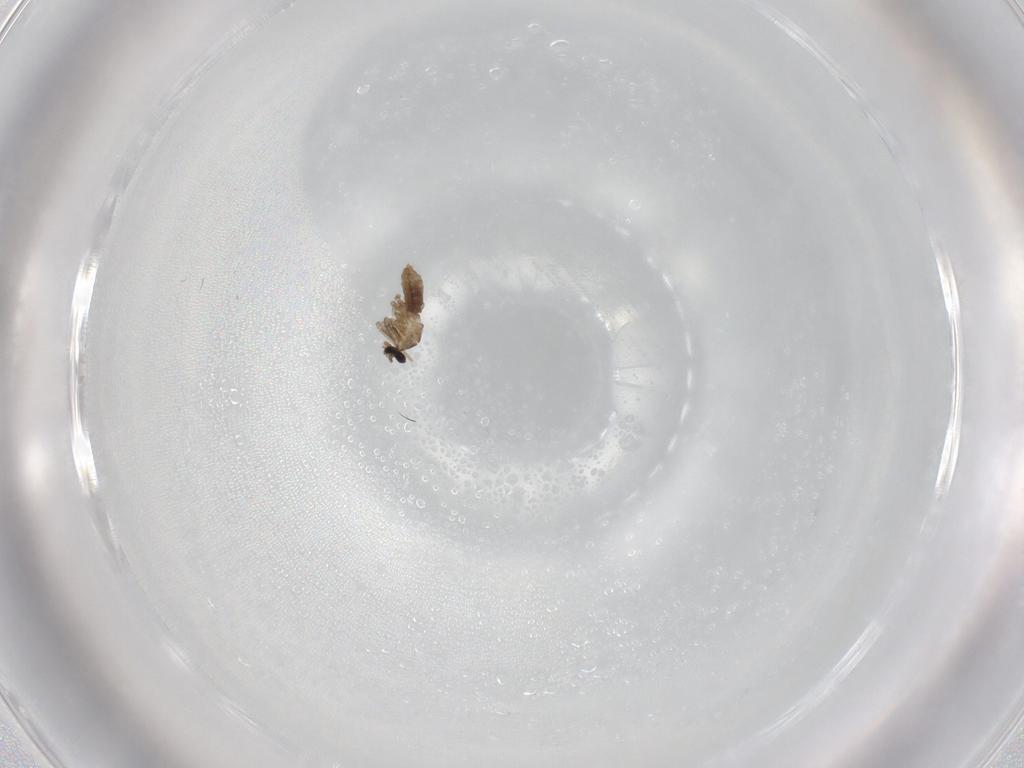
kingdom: Animalia
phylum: Arthropoda
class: Insecta
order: Diptera
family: Chironomidae
